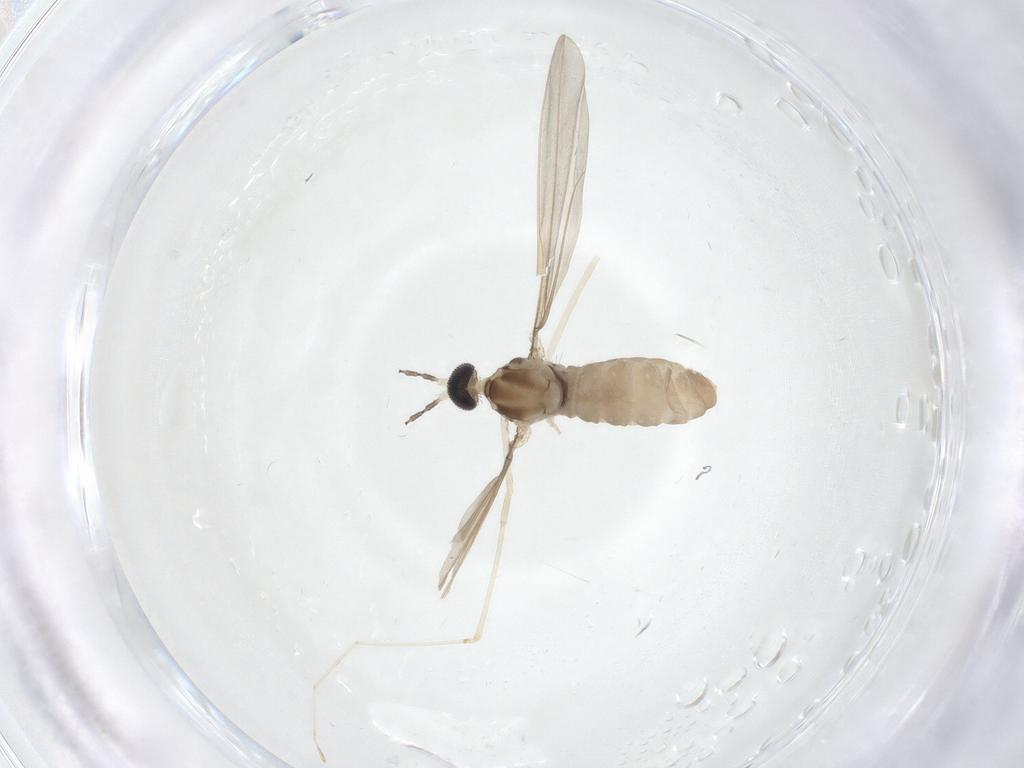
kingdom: Animalia
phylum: Arthropoda
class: Insecta
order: Diptera
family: Cecidomyiidae
